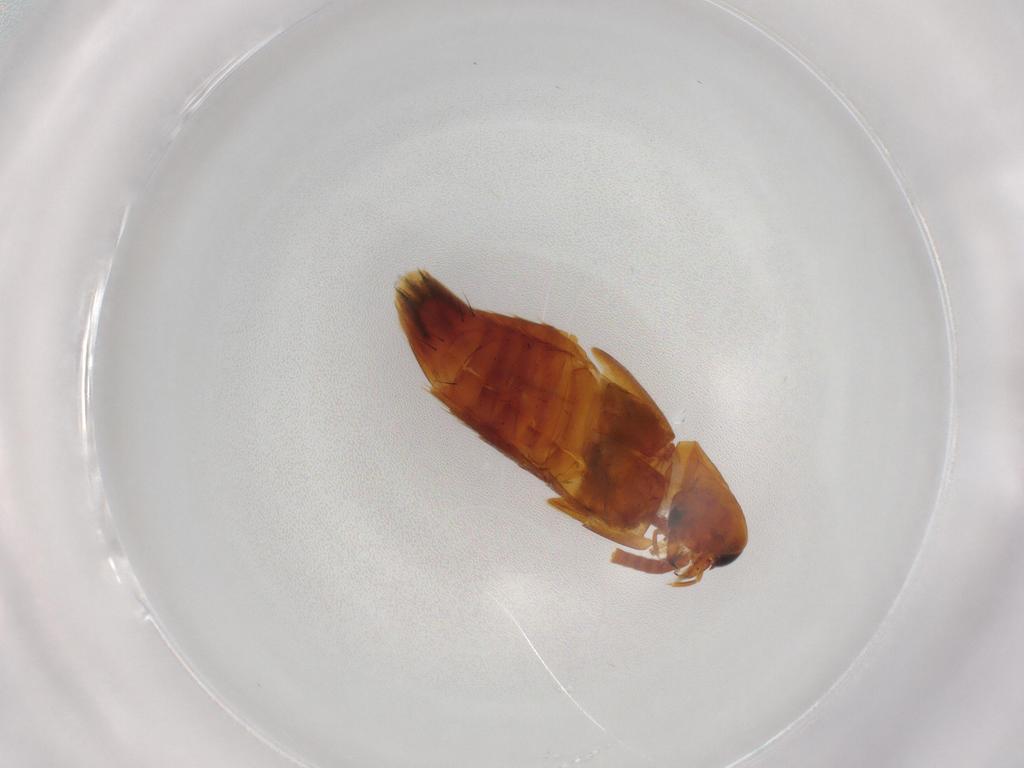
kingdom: Animalia
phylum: Arthropoda
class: Insecta
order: Coleoptera
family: Staphylinidae
